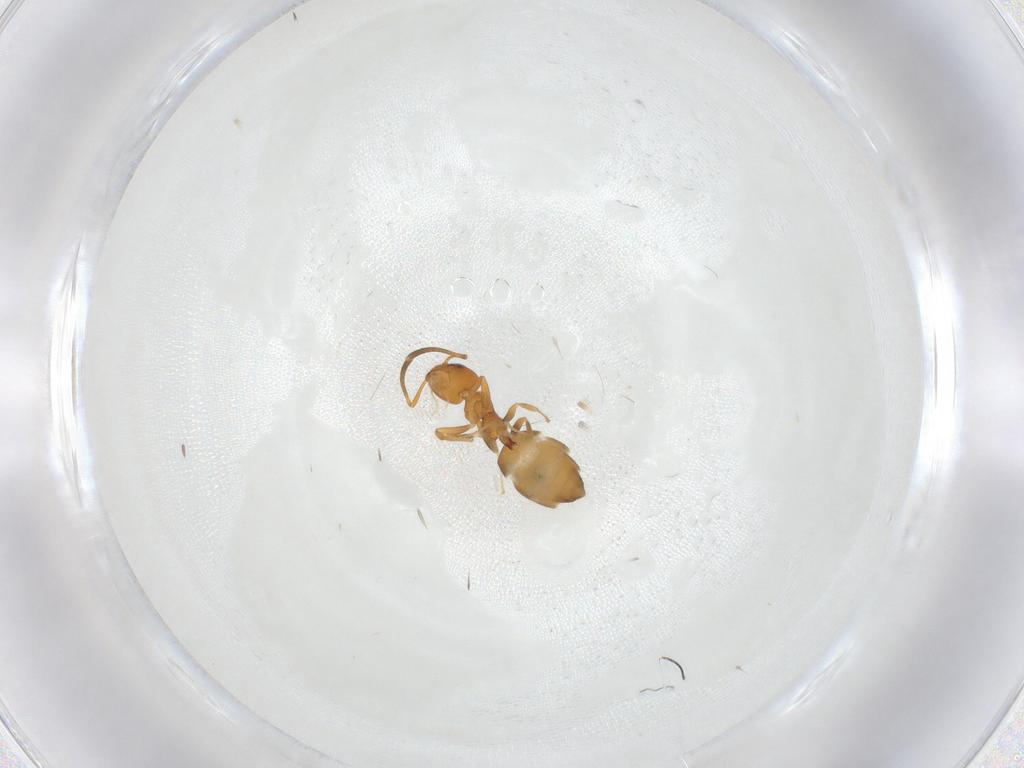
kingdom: Animalia
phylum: Arthropoda
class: Insecta
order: Hymenoptera
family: Formicidae
